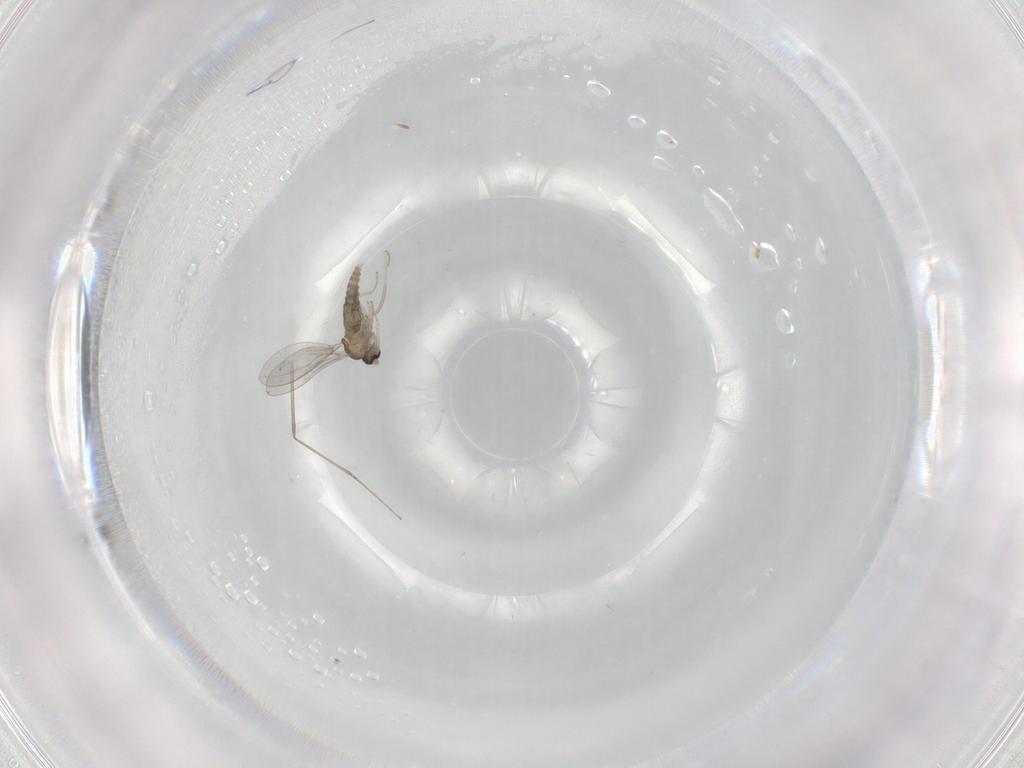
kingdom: Animalia
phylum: Arthropoda
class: Insecta
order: Diptera
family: Cecidomyiidae
